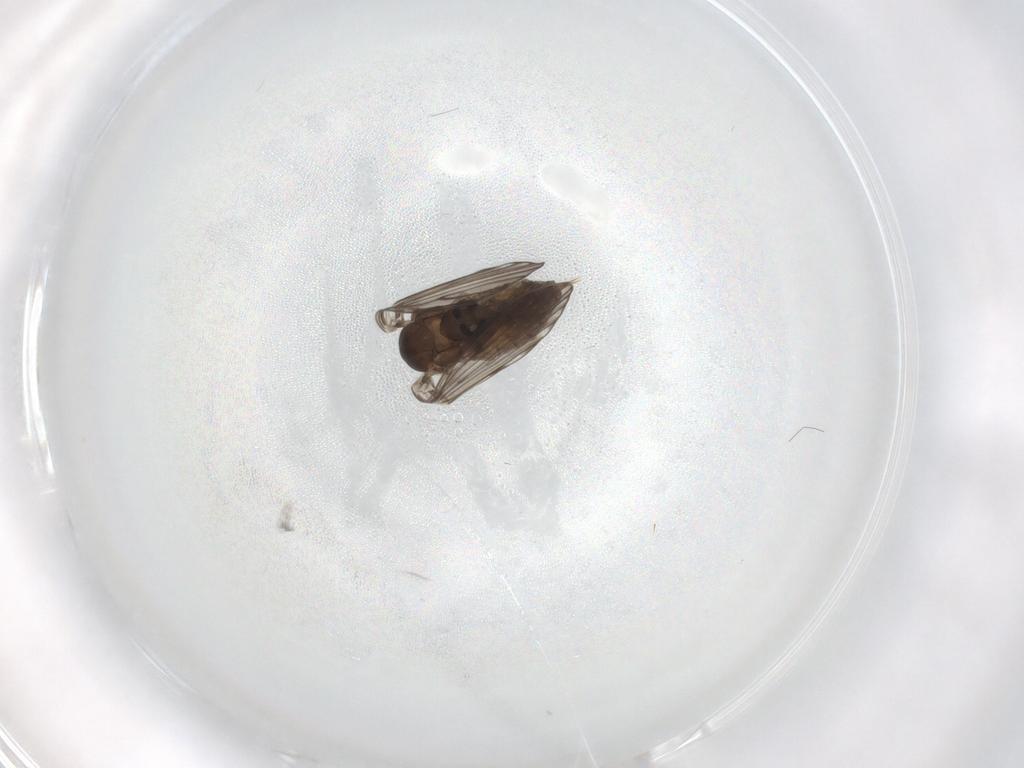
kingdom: Animalia
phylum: Arthropoda
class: Insecta
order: Diptera
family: Psychodidae
